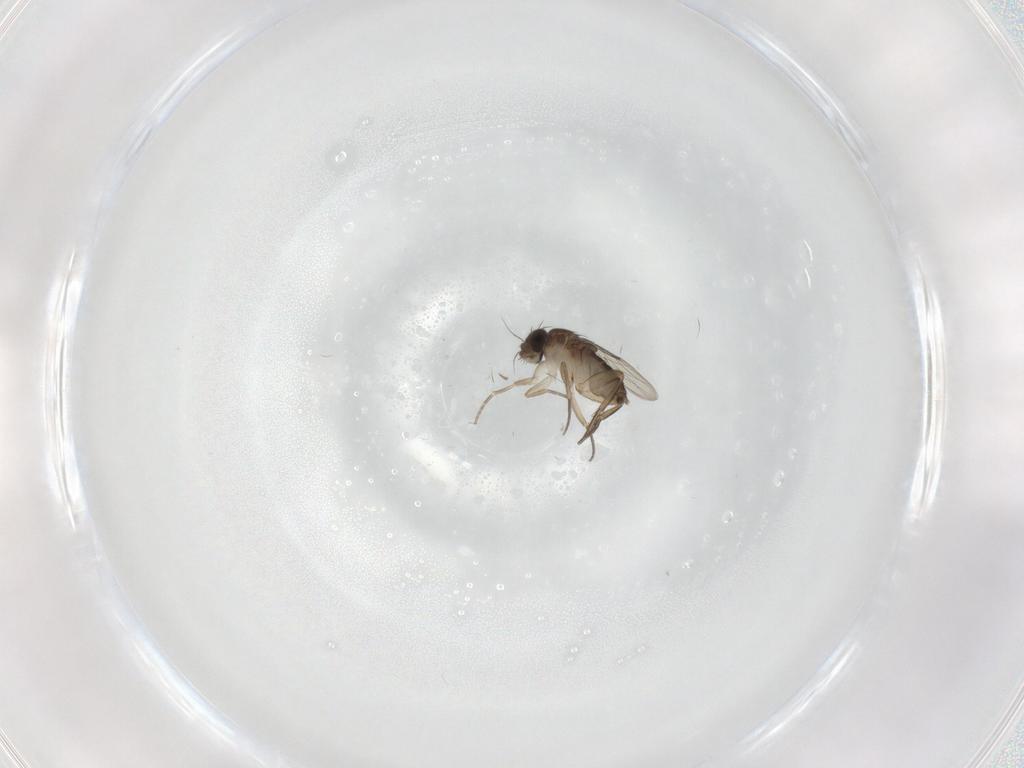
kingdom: Animalia
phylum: Arthropoda
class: Insecta
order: Diptera
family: Phoridae
